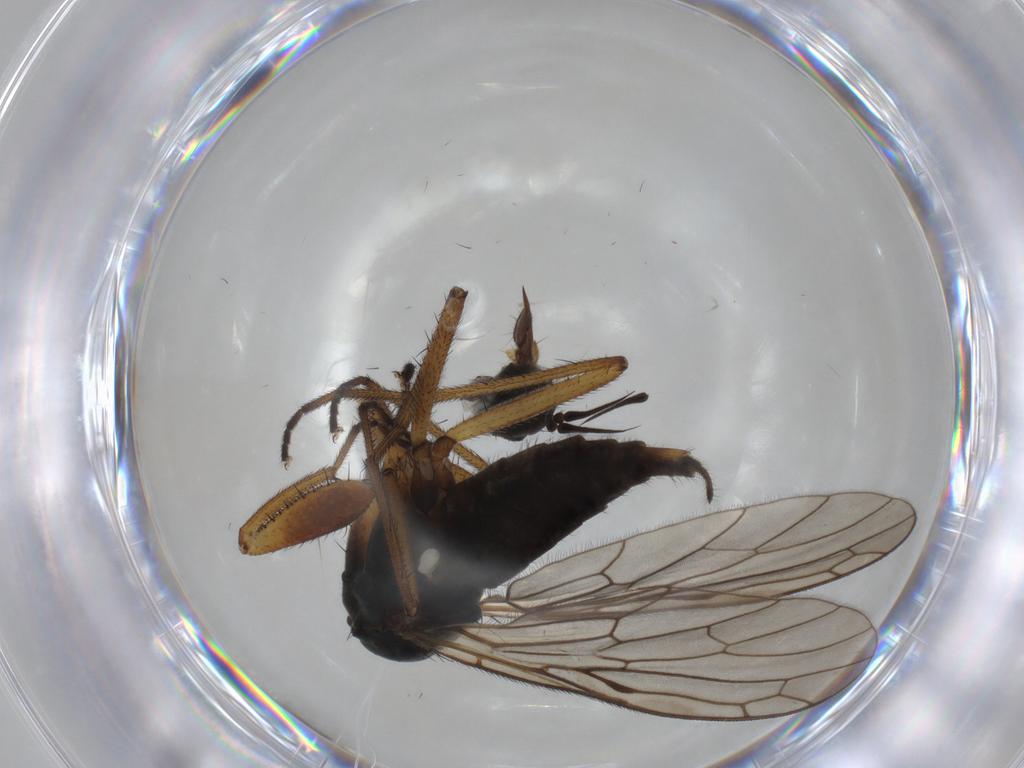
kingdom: Animalia
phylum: Arthropoda
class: Insecta
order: Diptera
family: Empididae
